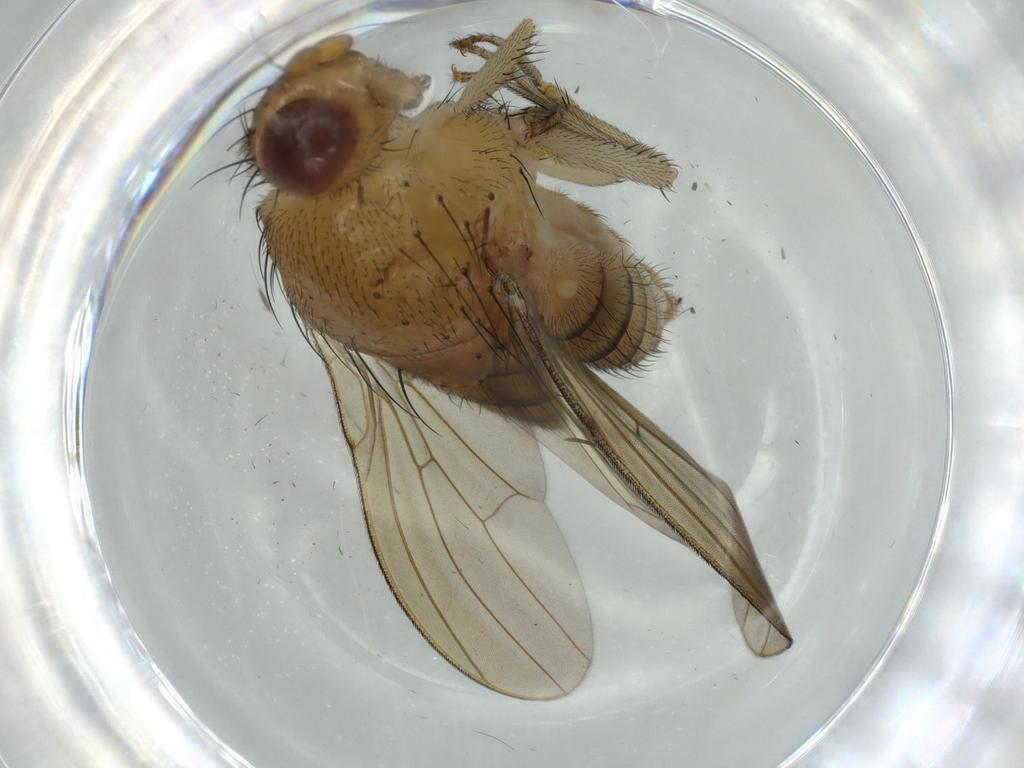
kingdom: Animalia
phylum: Arthropoda
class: Insecta
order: Diptera
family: Cecidomyiidae
